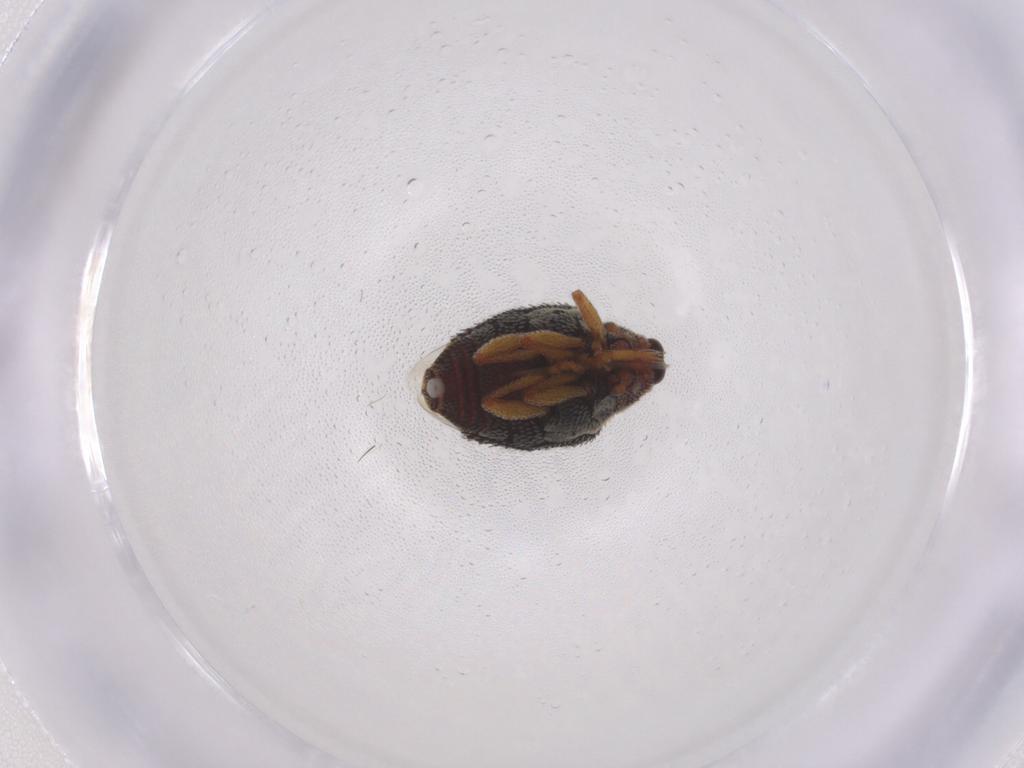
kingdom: Animalia
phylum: Arthropoda
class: Insecta
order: Coleoptera
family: Curculionidae
